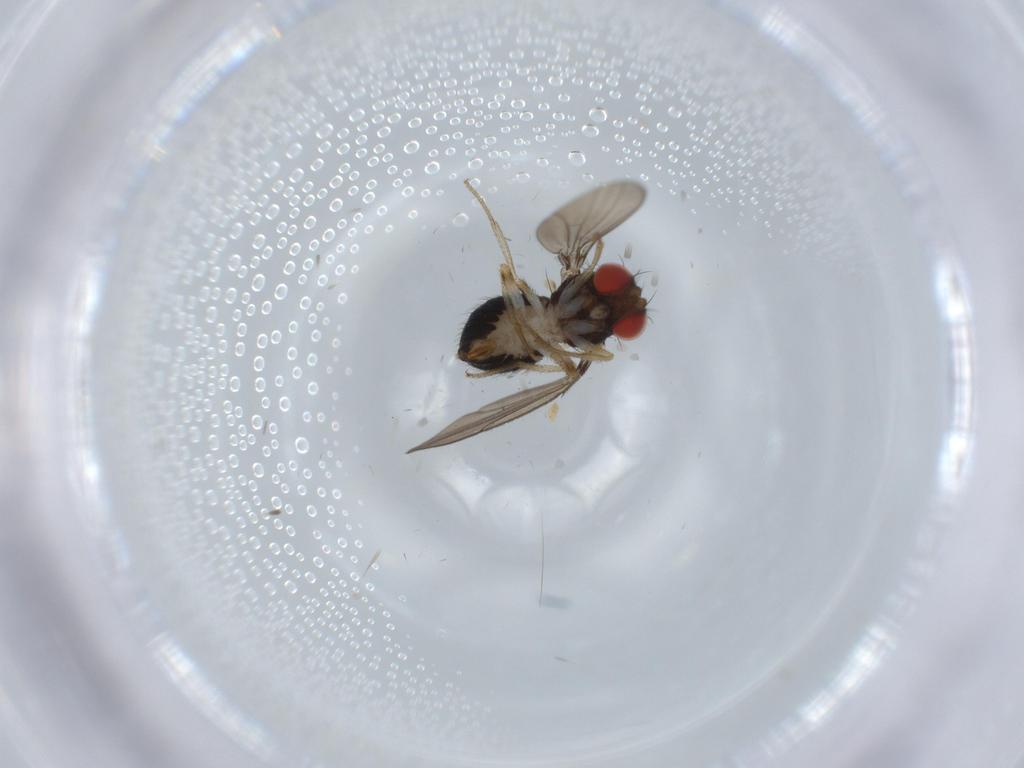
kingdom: Animalia
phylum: Arthropoda
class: Insecta
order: Diptera
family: Drosophilidae
